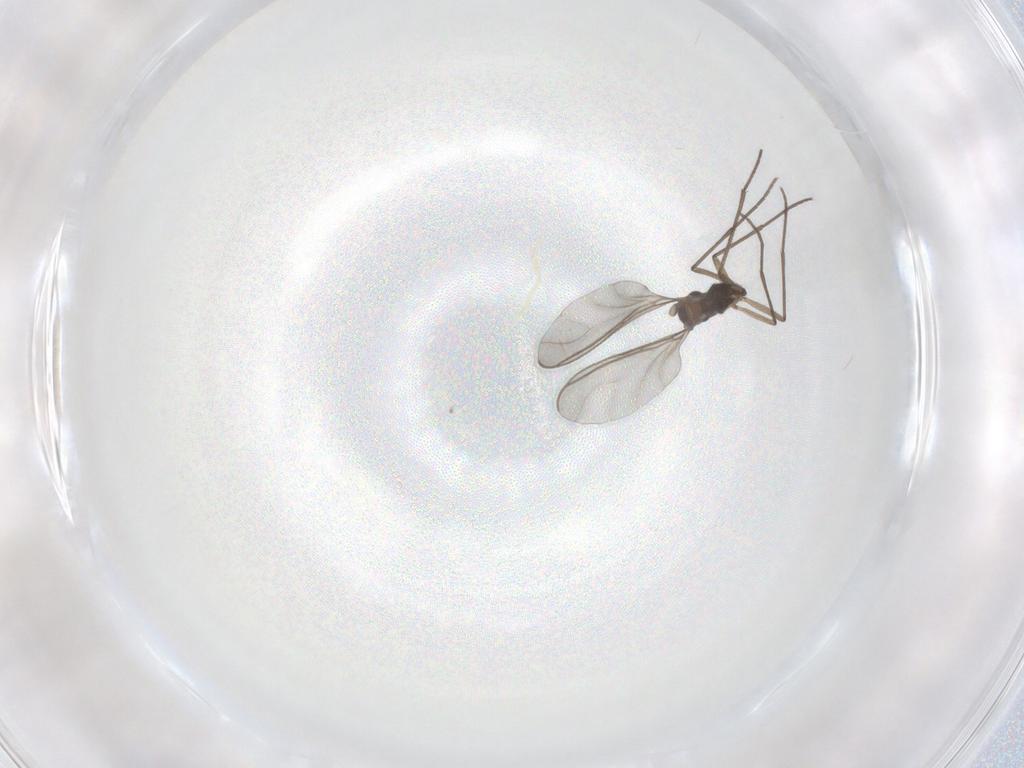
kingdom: Animalia
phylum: Arthropoda
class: Insecta
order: Diptera
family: Sciaridae
